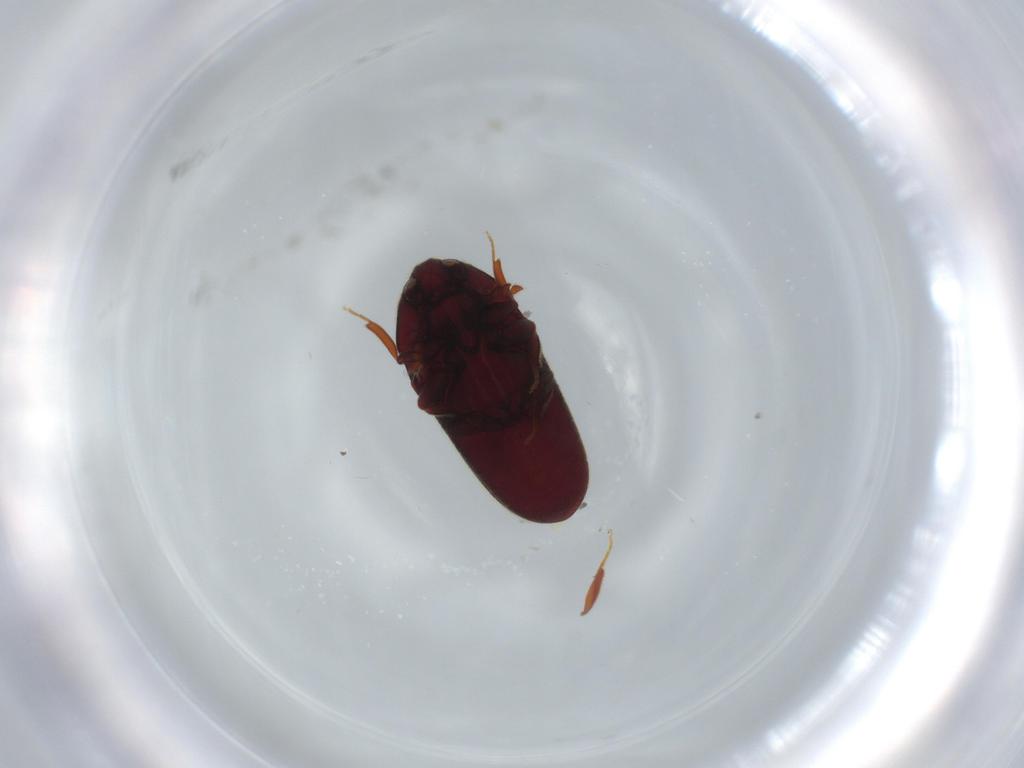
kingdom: Animalia
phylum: Arthropoda
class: Insecta
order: Coleoptera
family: Throscidae
